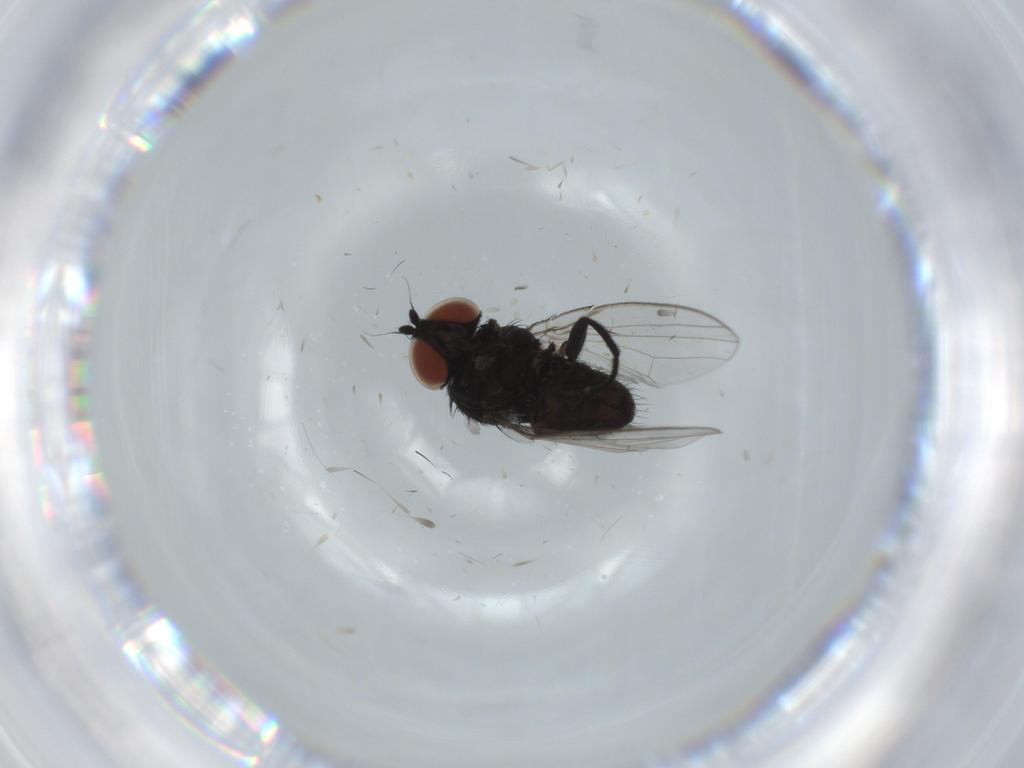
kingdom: Animalia
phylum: Arthropoda
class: Insecta
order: Diptera
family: Milichiidae
